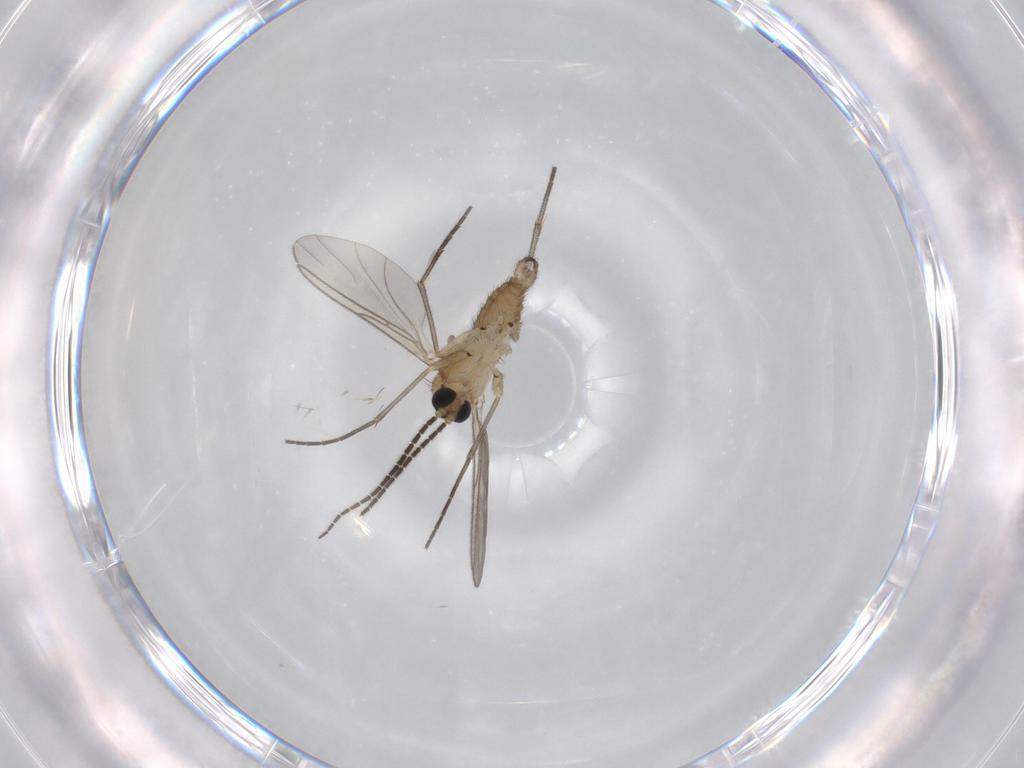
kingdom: Animalia
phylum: Arthropoda
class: Insecta
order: Diptera
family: Sciaridae
